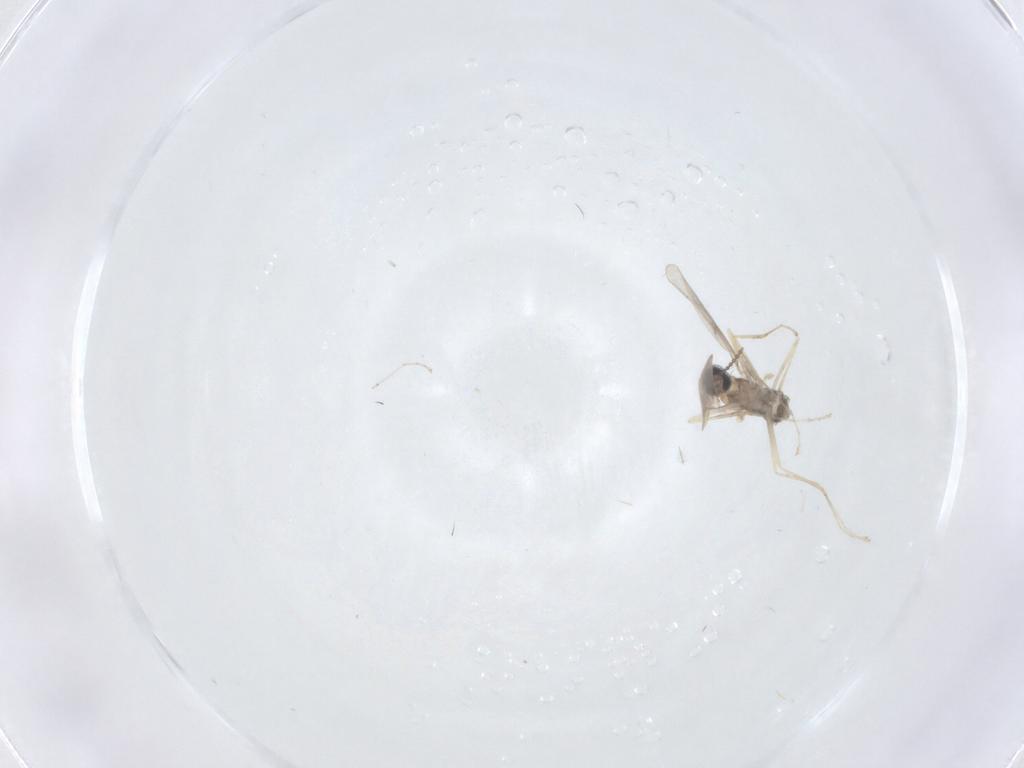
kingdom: Animalia
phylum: Arthropoda
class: Insecta
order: Diptera
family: Cecidomyiidae
